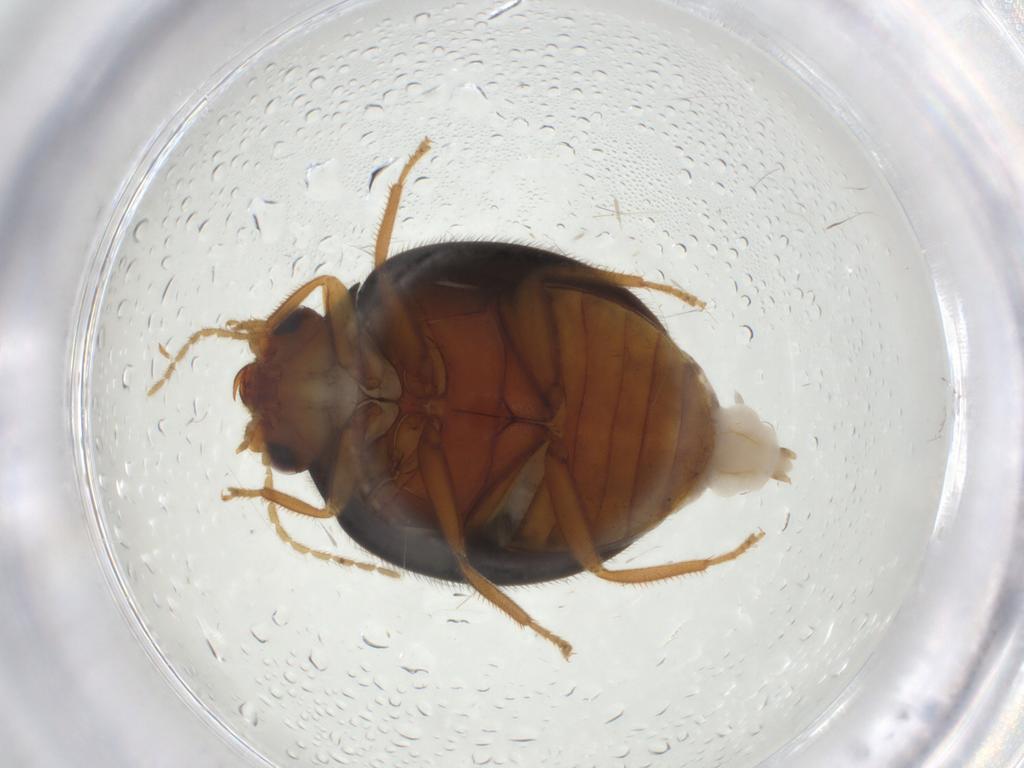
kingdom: Animalia
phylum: Arthropoda
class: Insecta
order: Coleoptera
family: Scirtidae
